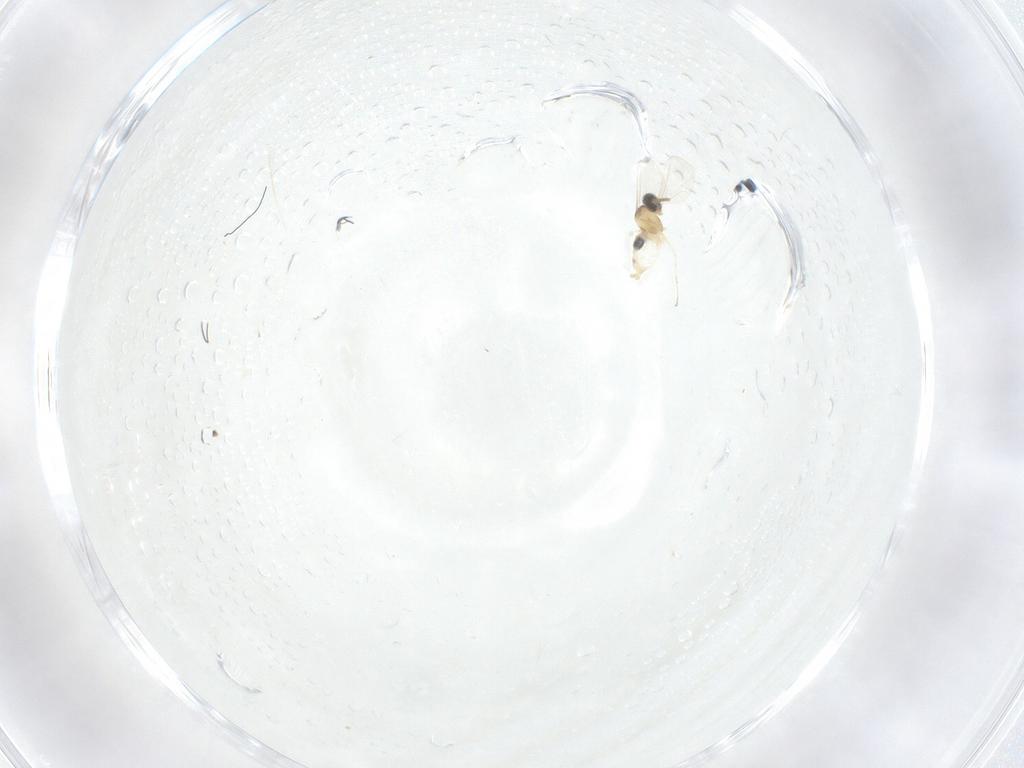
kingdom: Animalia
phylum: Arthropoda
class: Insecta
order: Diptera
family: Cecidomyiidae
